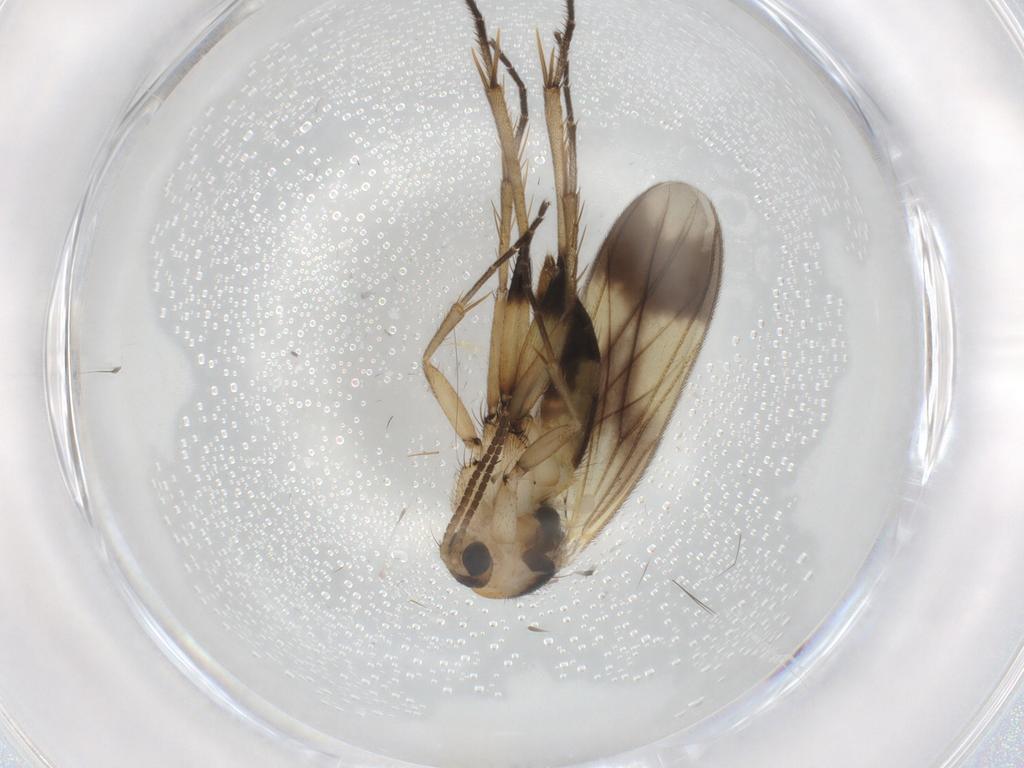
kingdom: Animalia
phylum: Arthropoda
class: Insecta
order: Diptera
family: Mycetophilidae
